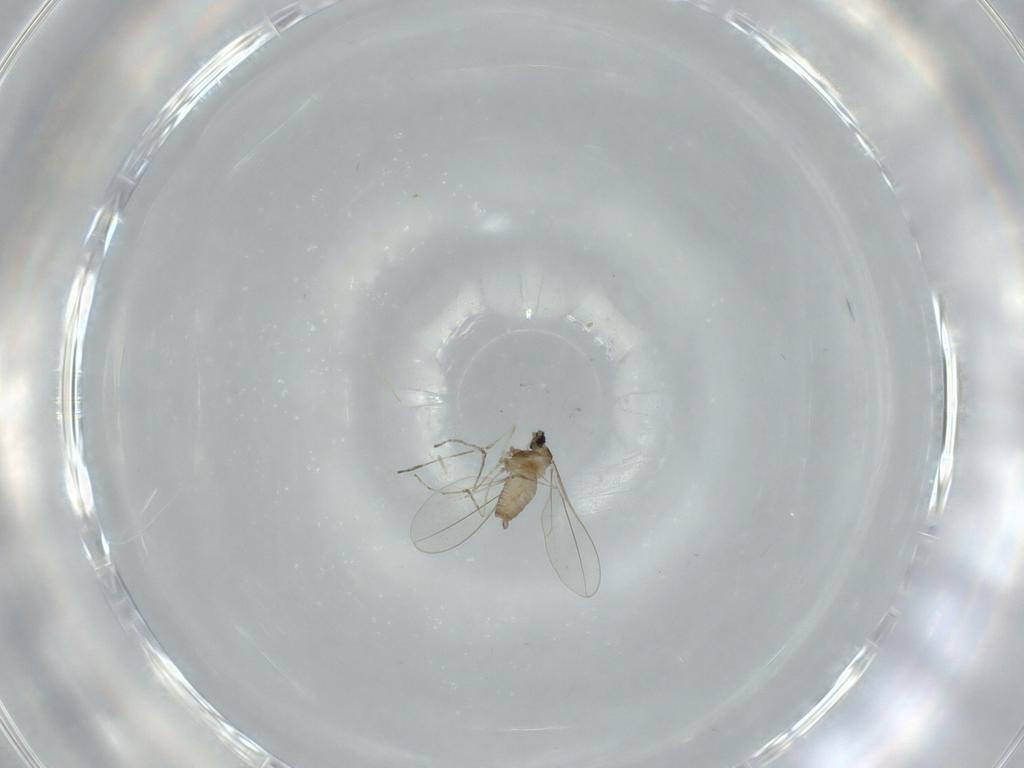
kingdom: Animalia
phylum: Arthropoda
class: Insecta
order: Diptera
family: Cecidomyiidae
